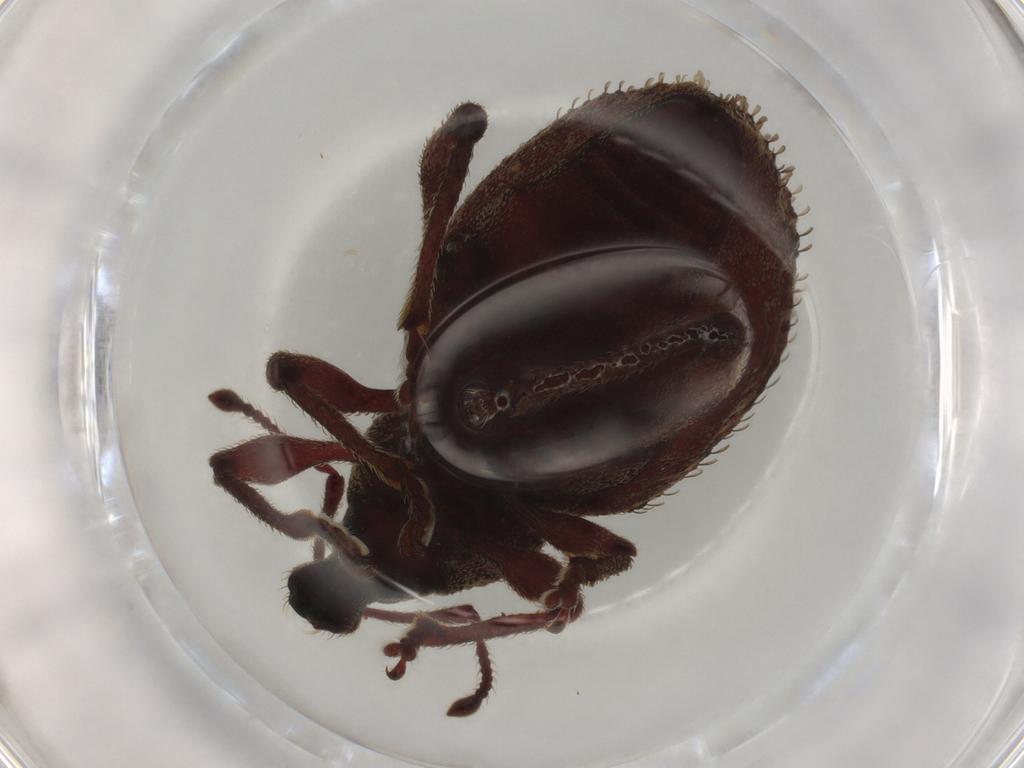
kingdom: Animalia
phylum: Arthropoda
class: Insecta
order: Coleoptera
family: Curculionidae
